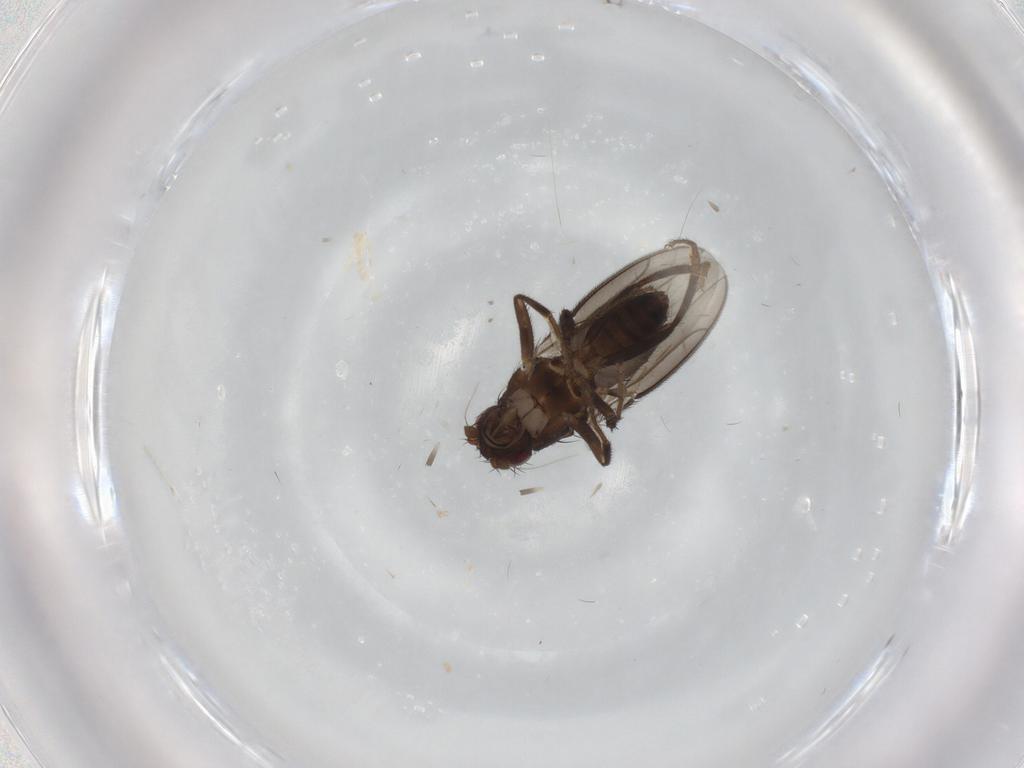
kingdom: Animalia
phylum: Arthropoda
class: Insecta
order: Diptera
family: Sphaeroceridae
